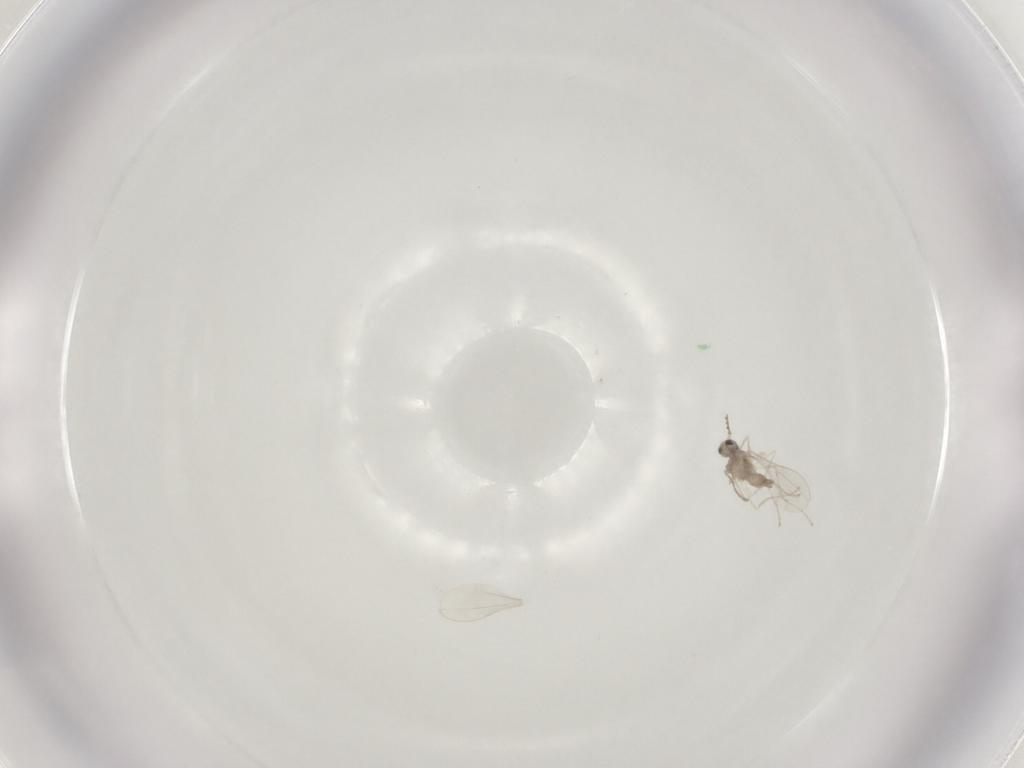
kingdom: Animalia
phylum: Arthropoda
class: Insecta
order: Diptera
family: Cecidomyiidae
